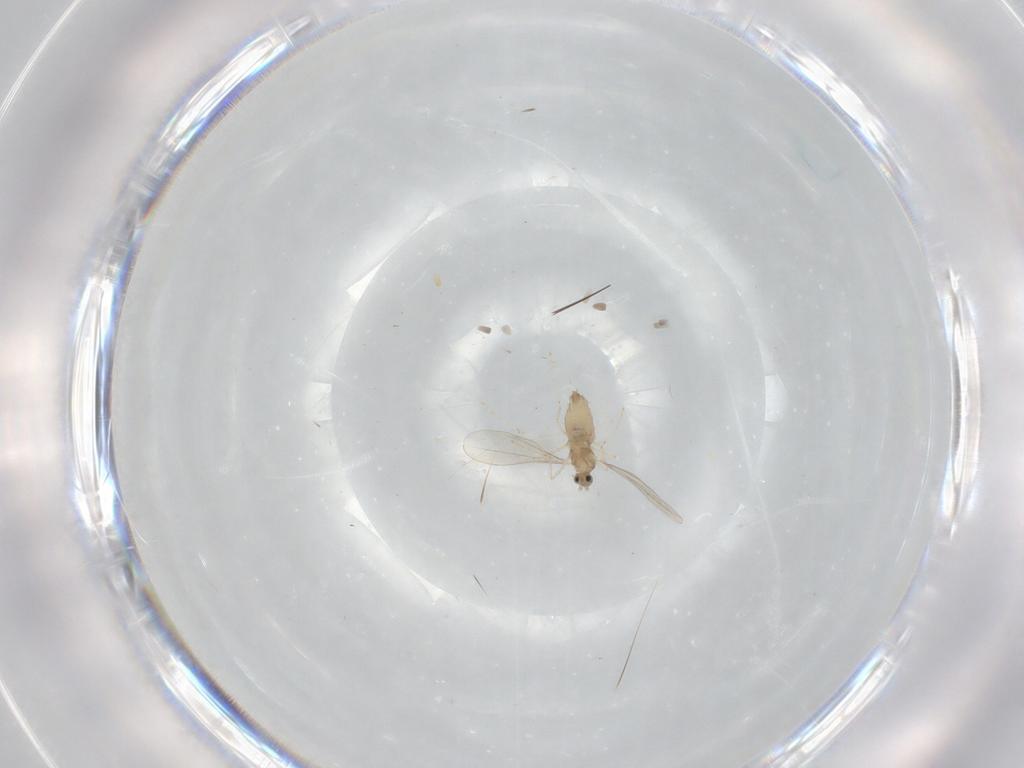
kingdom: Animalia
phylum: Arthropoda
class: Insecta
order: Diptera
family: Cecidomyiidae
